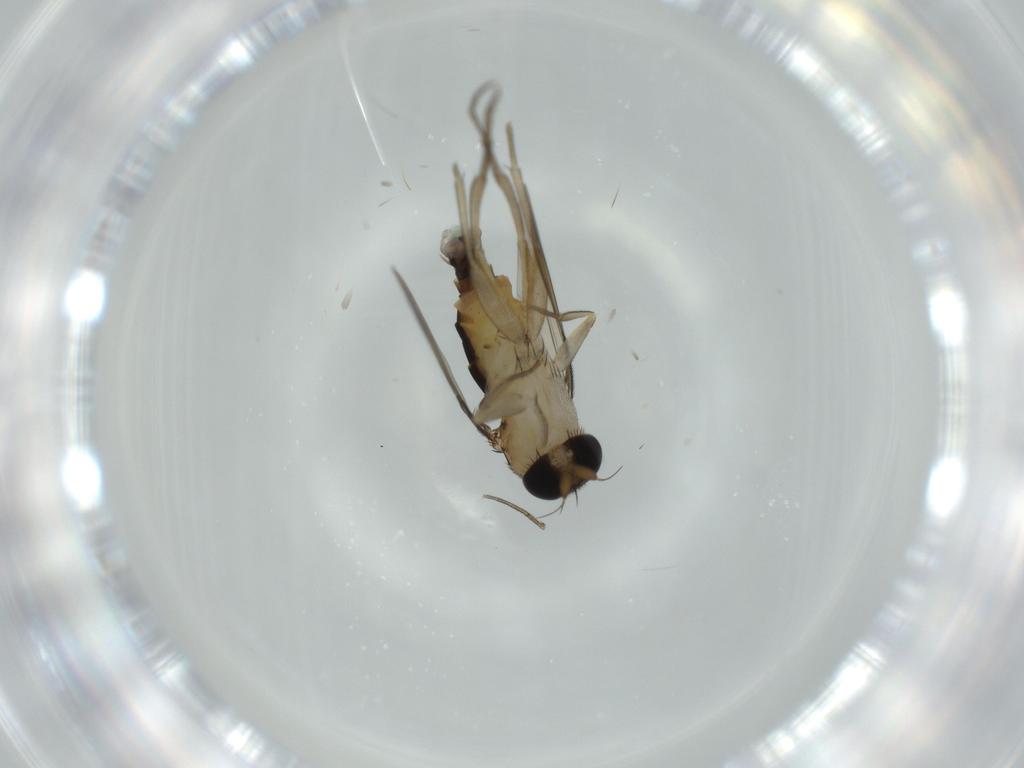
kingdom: Animalia
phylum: Arthropoda
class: Insecta
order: Diptera
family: Phoridae
